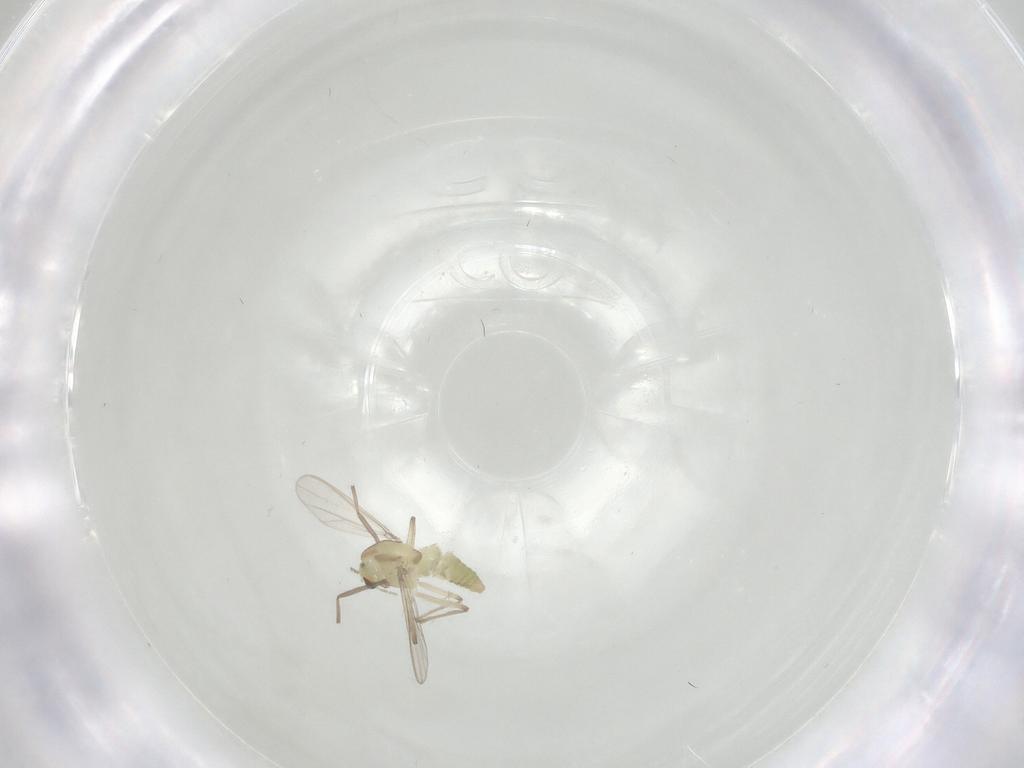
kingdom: Animalia
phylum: Arthropoda
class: Insecta
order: Diptera
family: Chironomidae
